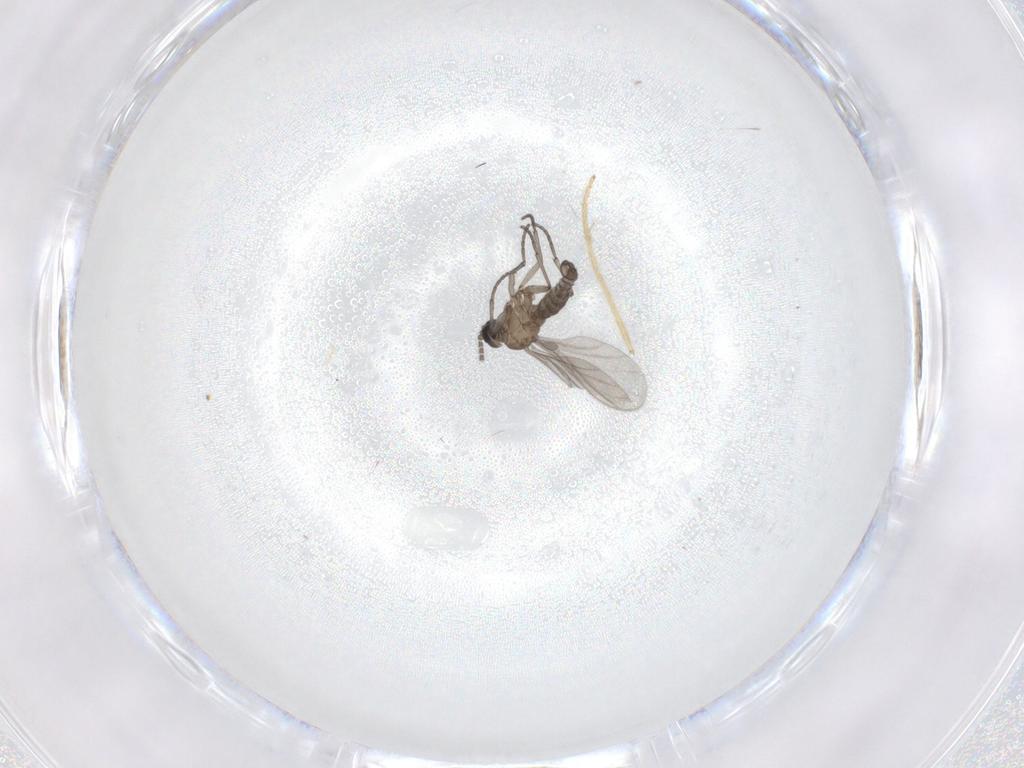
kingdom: Animalia
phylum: Arthropoda
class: Insecta
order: Diptera
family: Sciaridae
